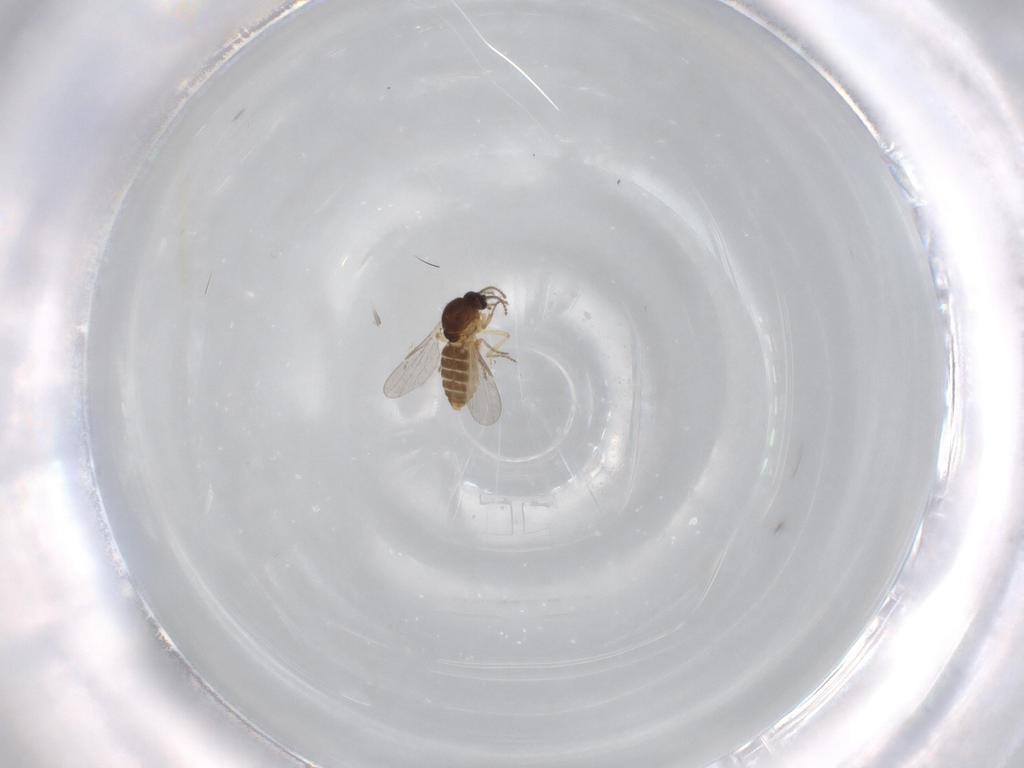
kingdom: Animalia
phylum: Arthropoda
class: Insecta
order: Diptera
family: Ceratopogonidae
